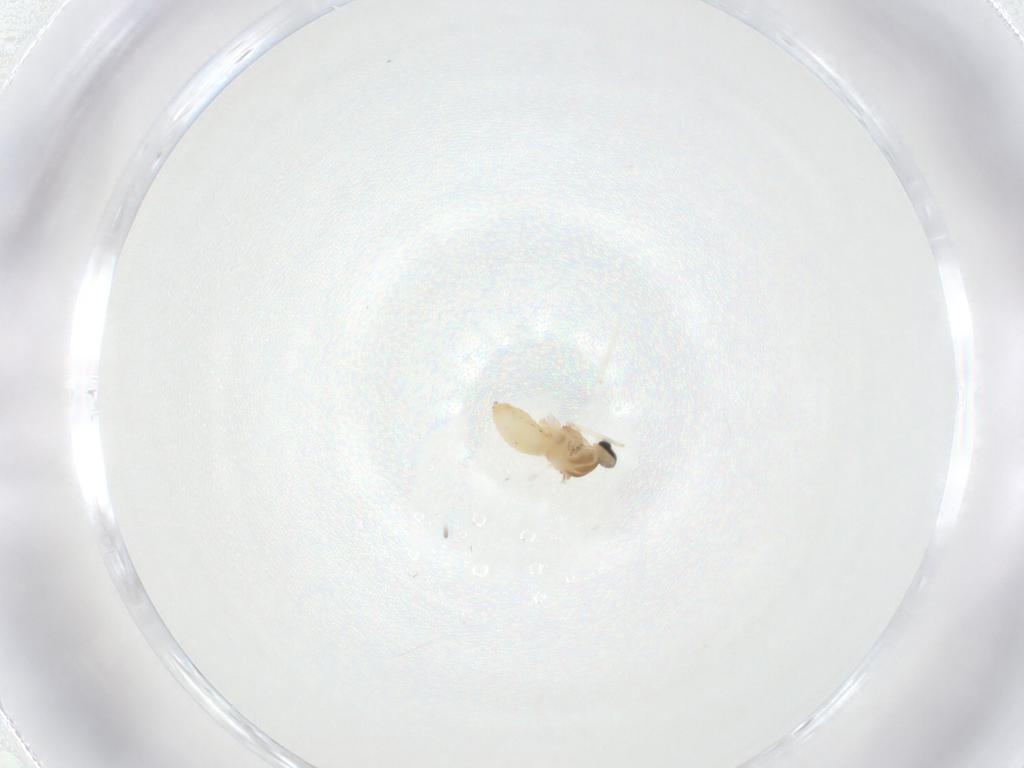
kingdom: Animalia
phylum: Arthropoda
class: Insecta
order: Diptera
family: Cecidomyiidae
